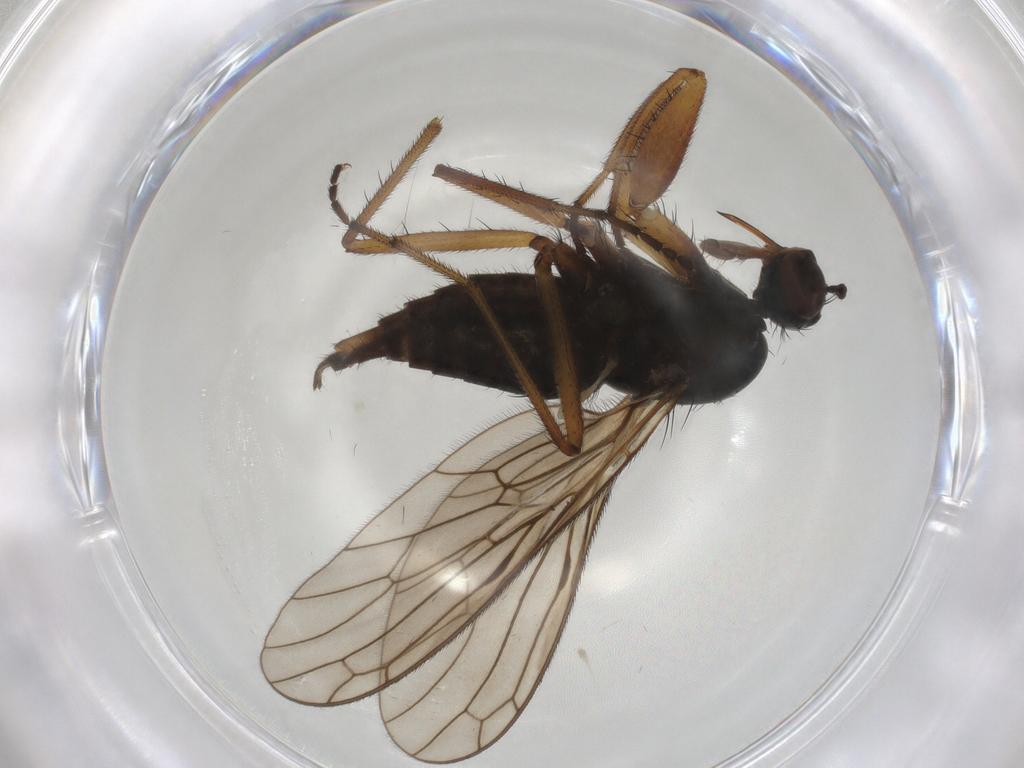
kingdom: Animalia
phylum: Arthropoda
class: Insecta
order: Diptera
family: Empididae
